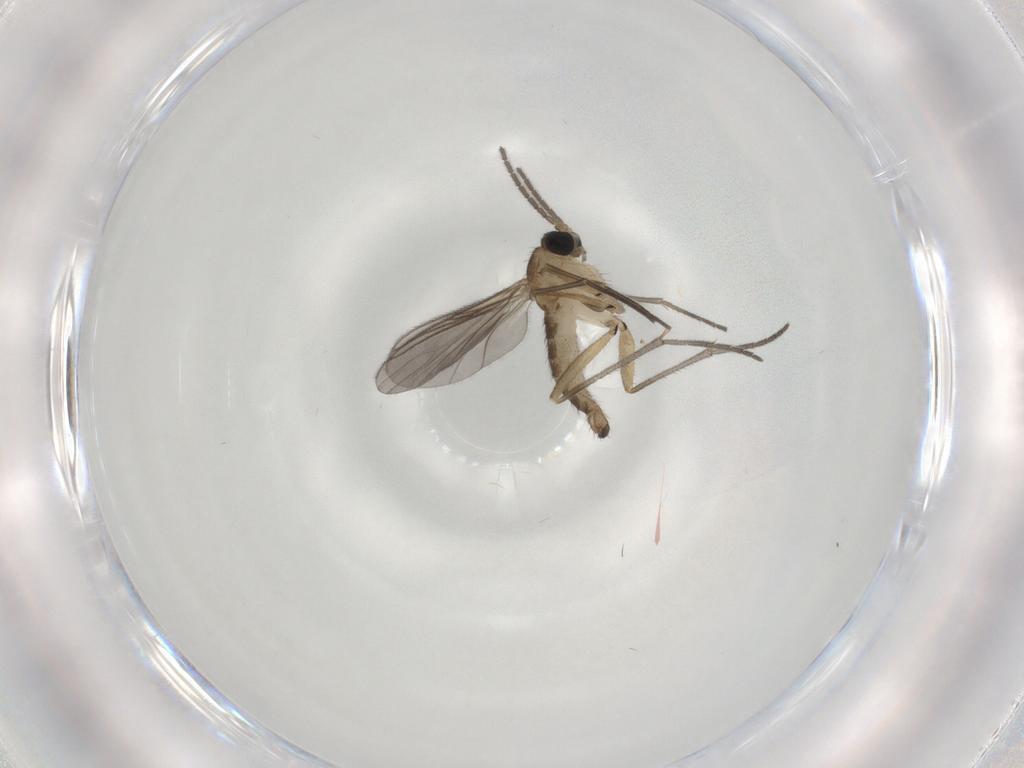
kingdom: Animalia
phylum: Arthropoda
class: Insecta
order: Diptera
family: Sciaridae
